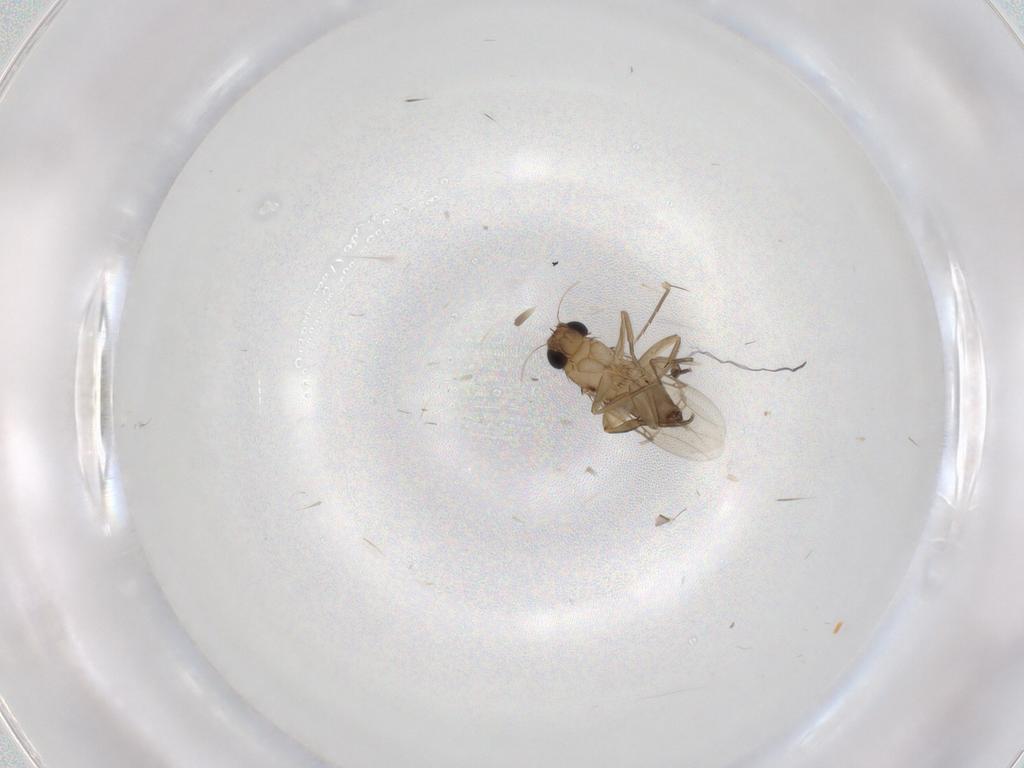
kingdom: Animalia
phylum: Arthropoda
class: Insecta
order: Diptera
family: Phoridae
